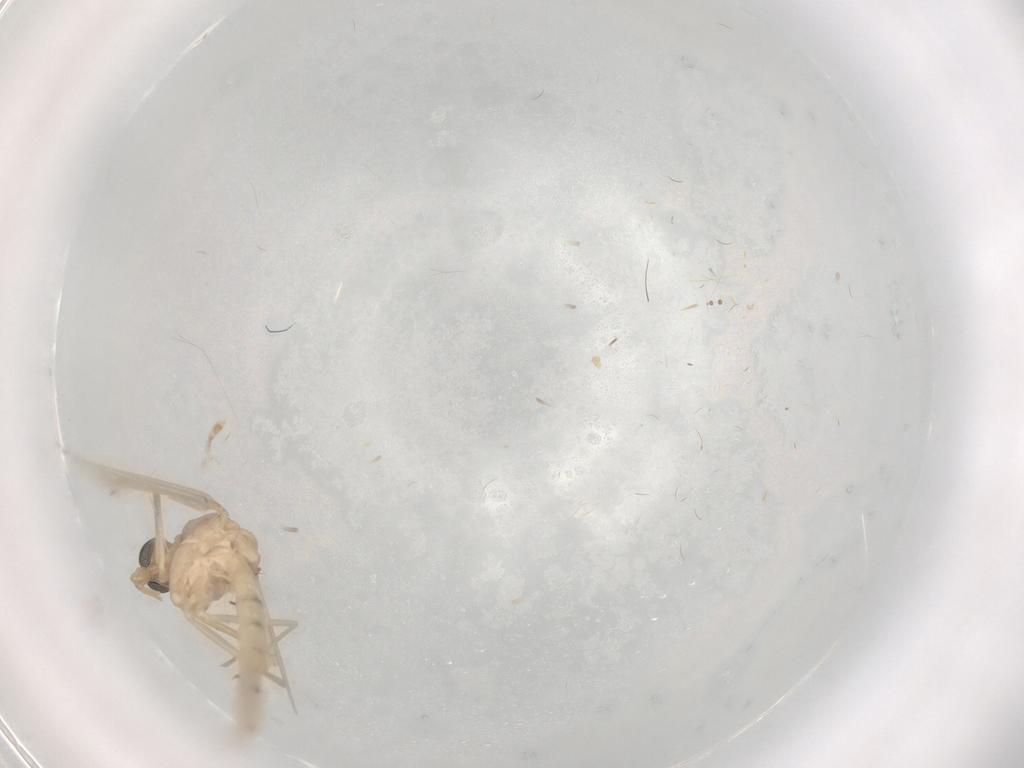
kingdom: Animalia
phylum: Arthropoda
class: Insecta
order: Diptera
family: Chironomidae
